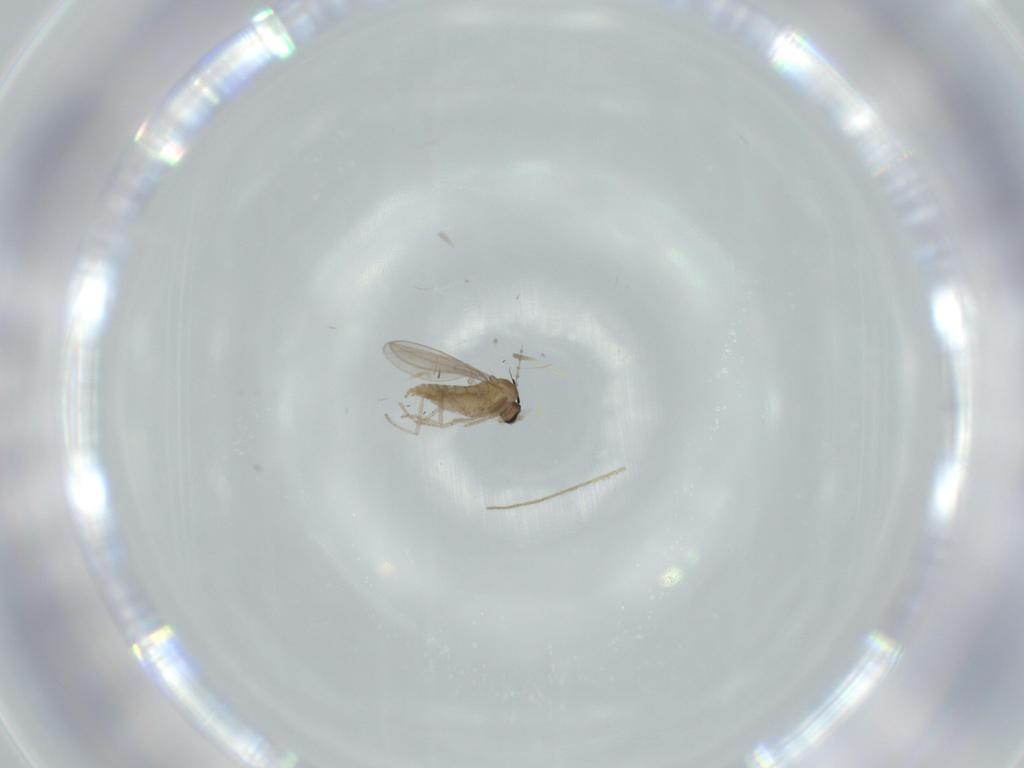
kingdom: Animalia
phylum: Arthropoda
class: Insecta
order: Diptera
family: Cecidomyiidae
